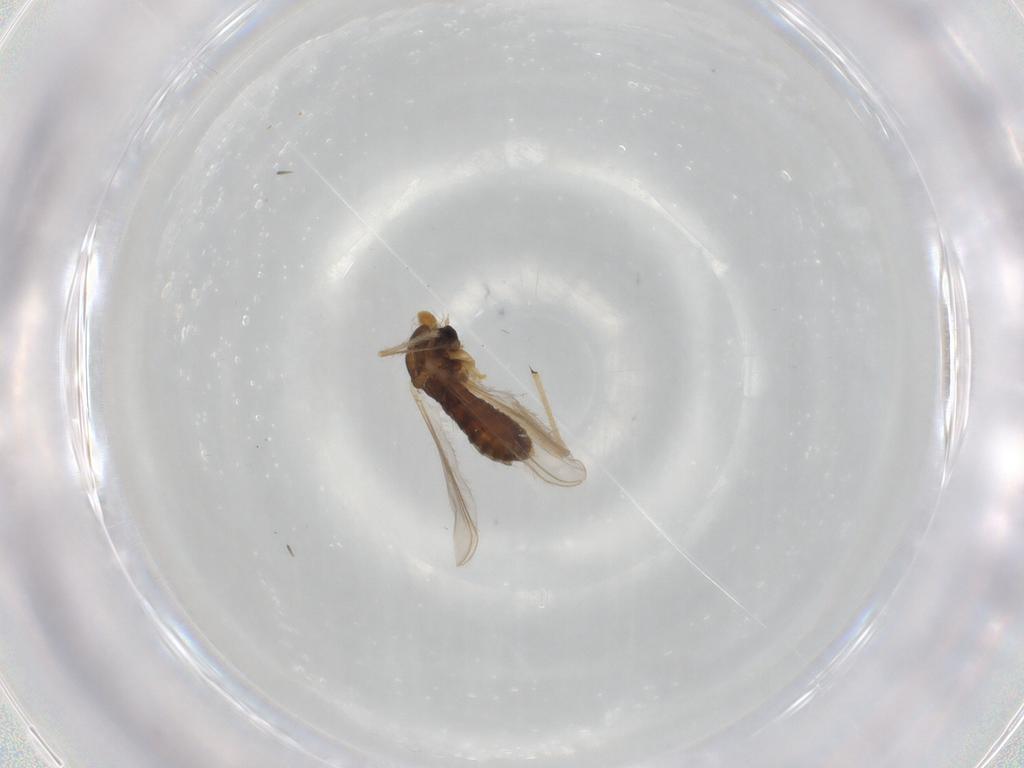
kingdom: Animalia
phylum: Arthropoda
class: Insecta
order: Diptera
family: Chironomidae
